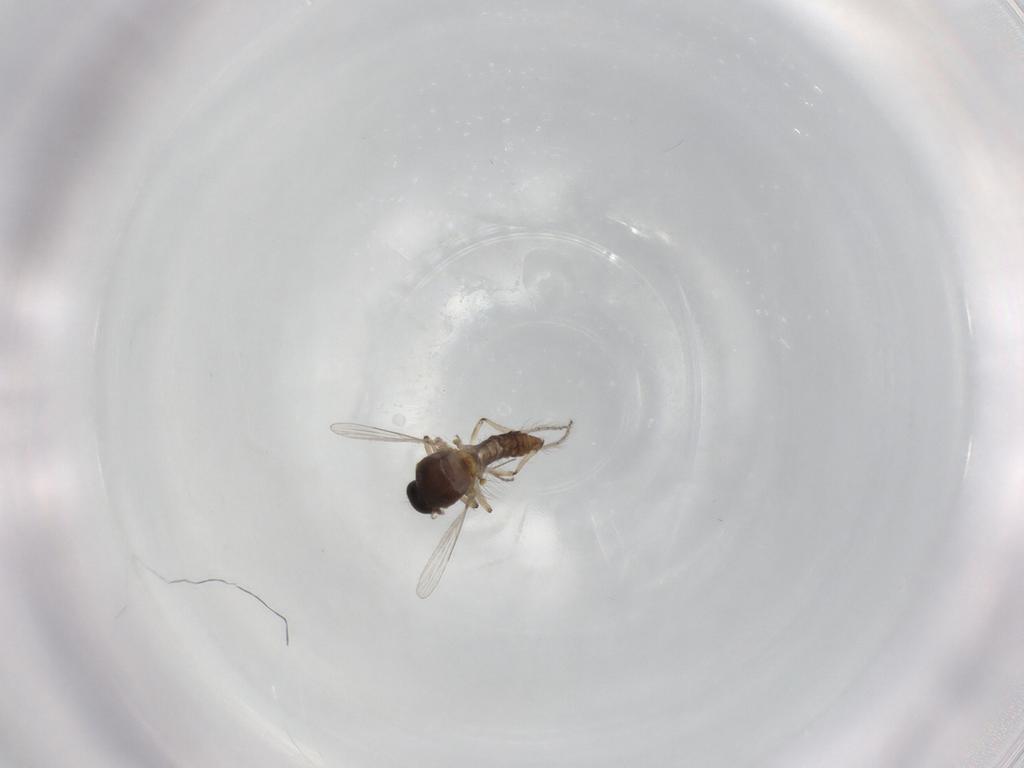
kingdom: Animalia
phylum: Arthropoda
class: Insecta
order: Diptera
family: Ceratopogonidae
